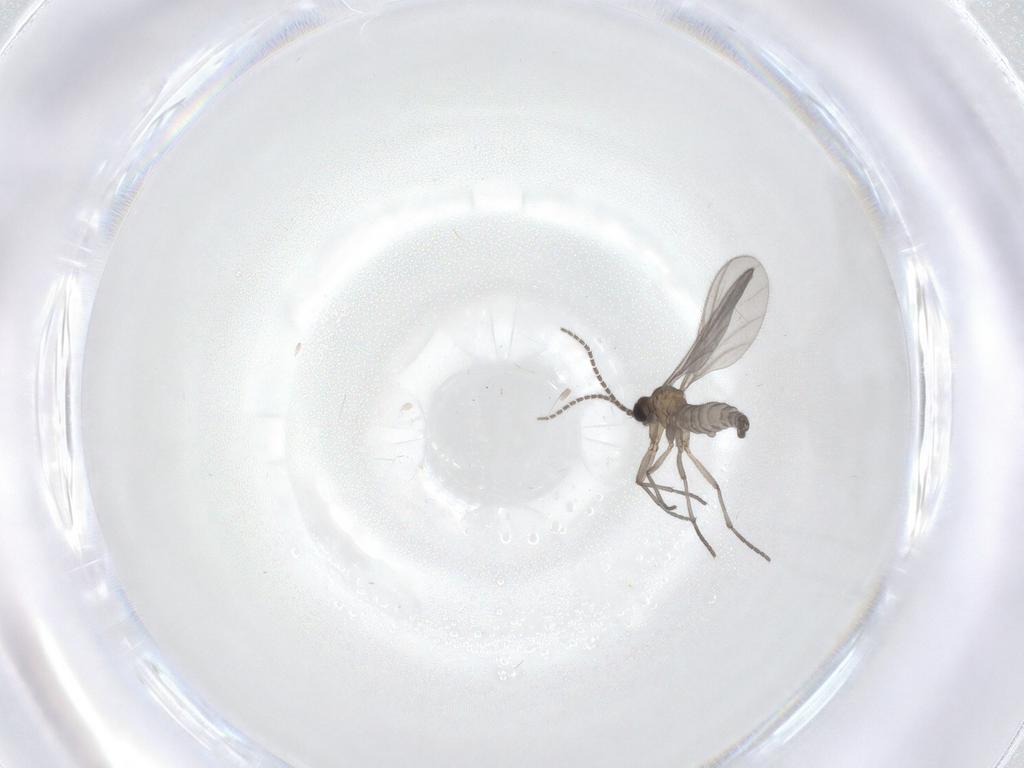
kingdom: Animalia
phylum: Arthropoda
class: Insecta
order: Diptera
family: Sciaridae
